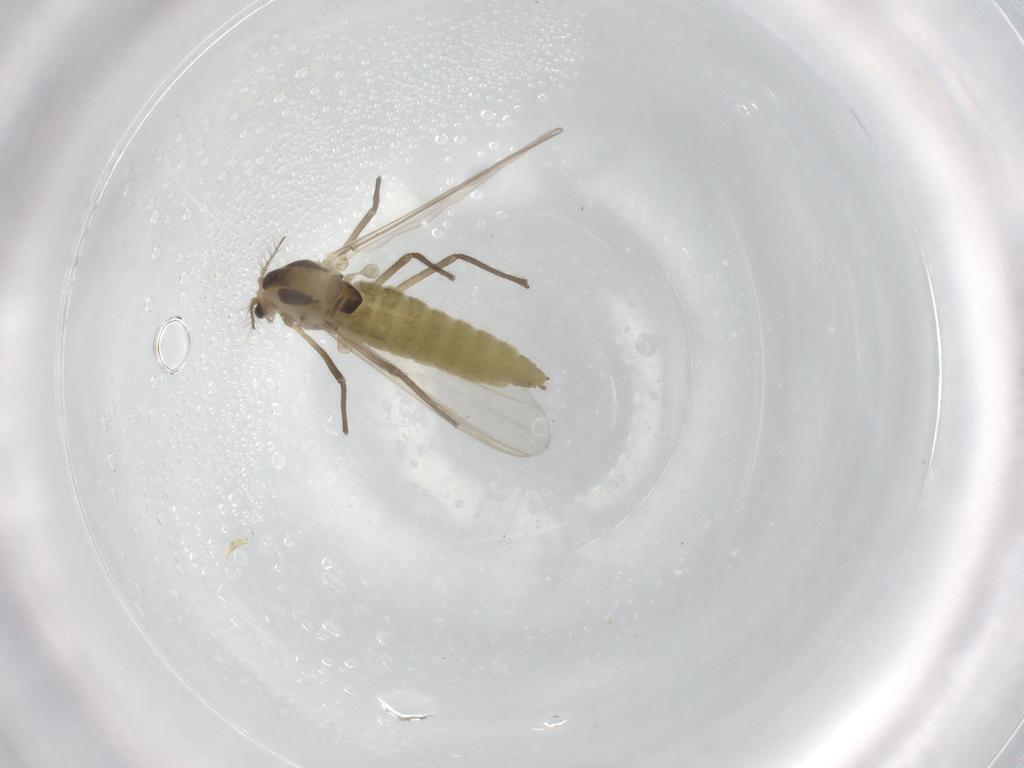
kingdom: Animalia
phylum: Arthropoda
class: Insecta
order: Diptera
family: Chironomidae
